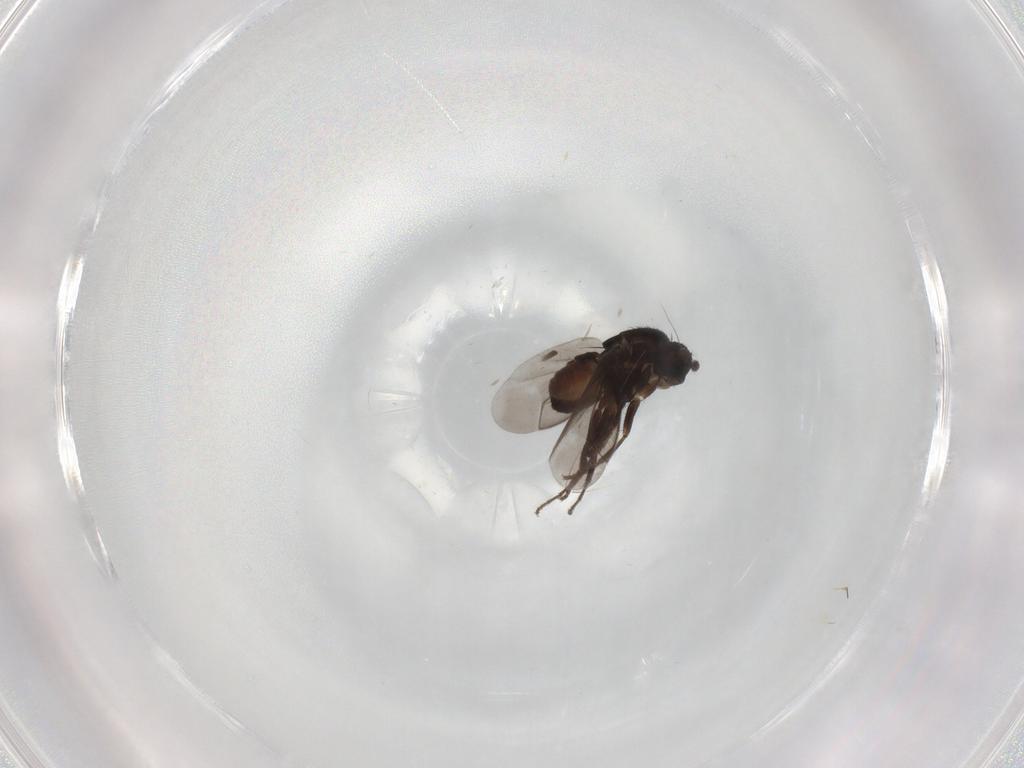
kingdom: Animalia
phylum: Arthropoda
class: Insecta
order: Diptera
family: Sphaeroceridae
